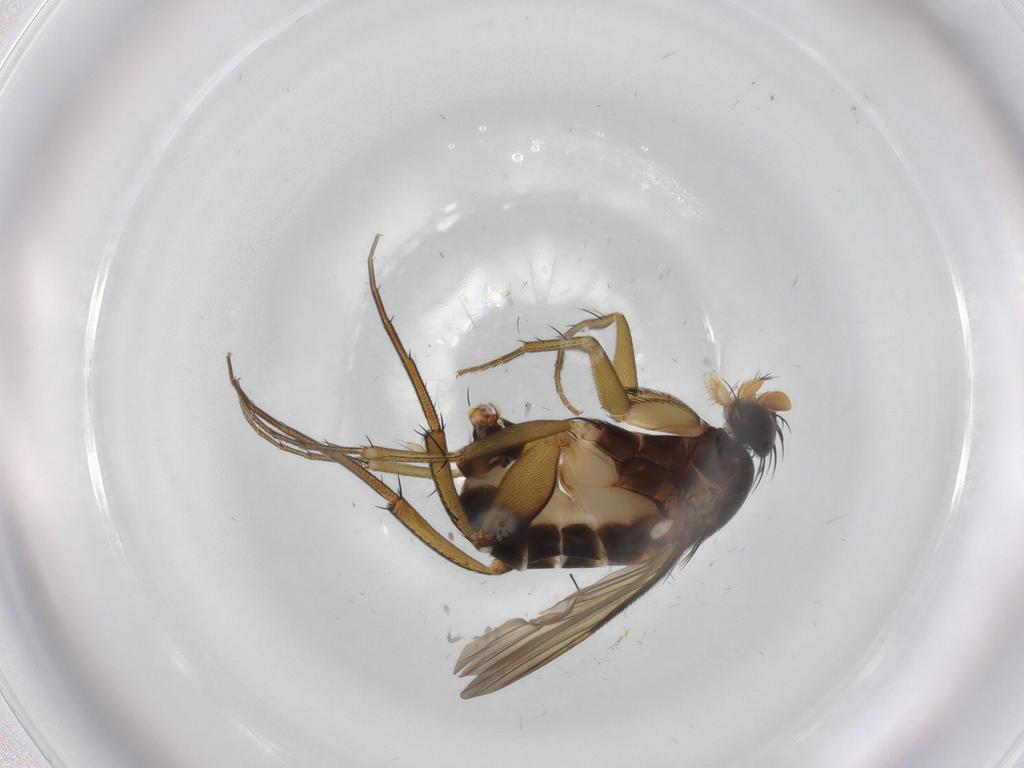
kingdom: Animalia
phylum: Arthropoda
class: Insecta
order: Diptera
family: Phoridae
